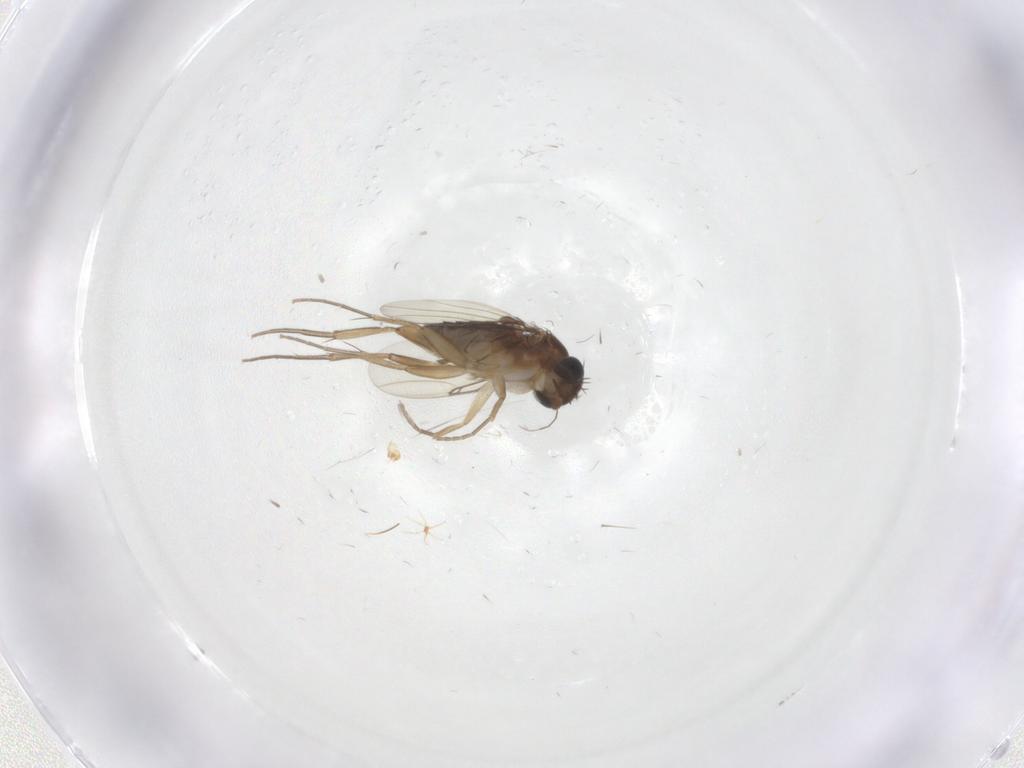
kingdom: Animalia
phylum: Arthropoda
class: Insecta
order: Diptera
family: Phoridae
